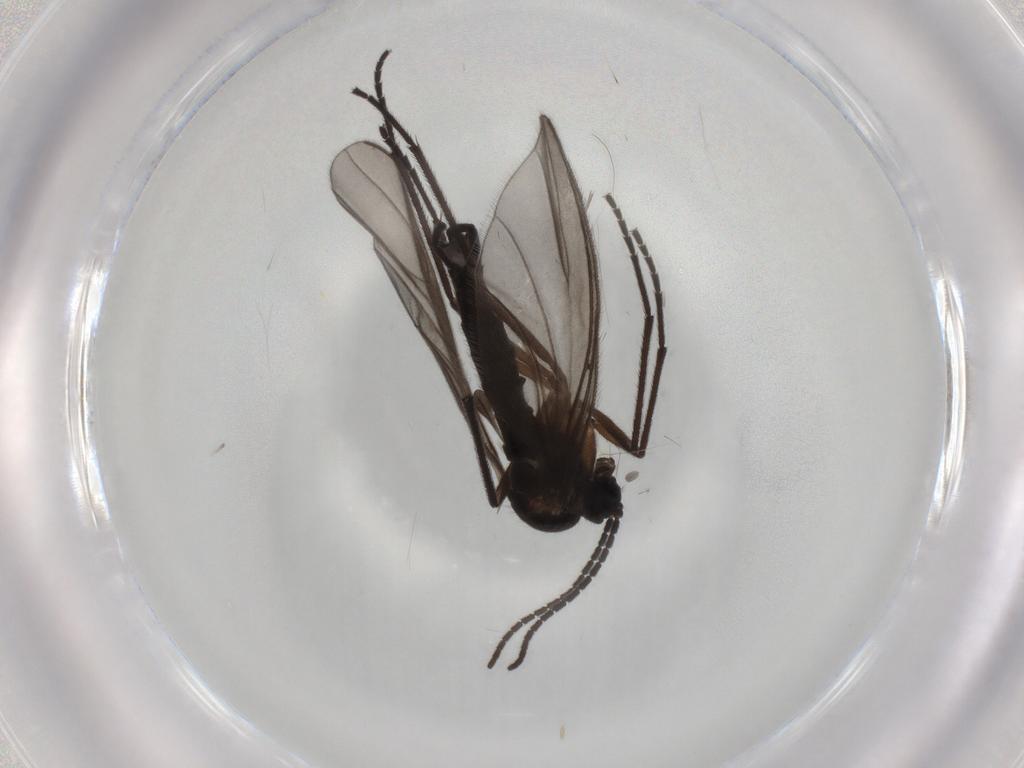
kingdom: Animalia
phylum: Arthropoda
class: Insecta
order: Diptera
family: Sciaridae
